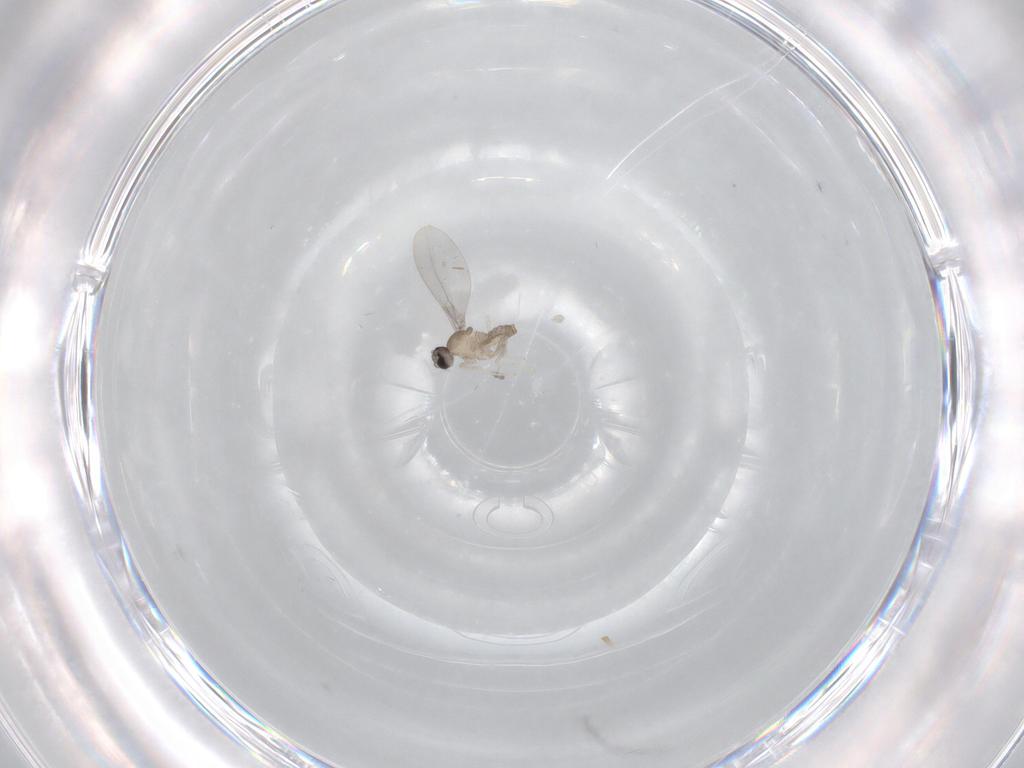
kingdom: Animalia
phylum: Arthropoda
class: Insecta
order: Diptera
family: Cecidomyiidae
